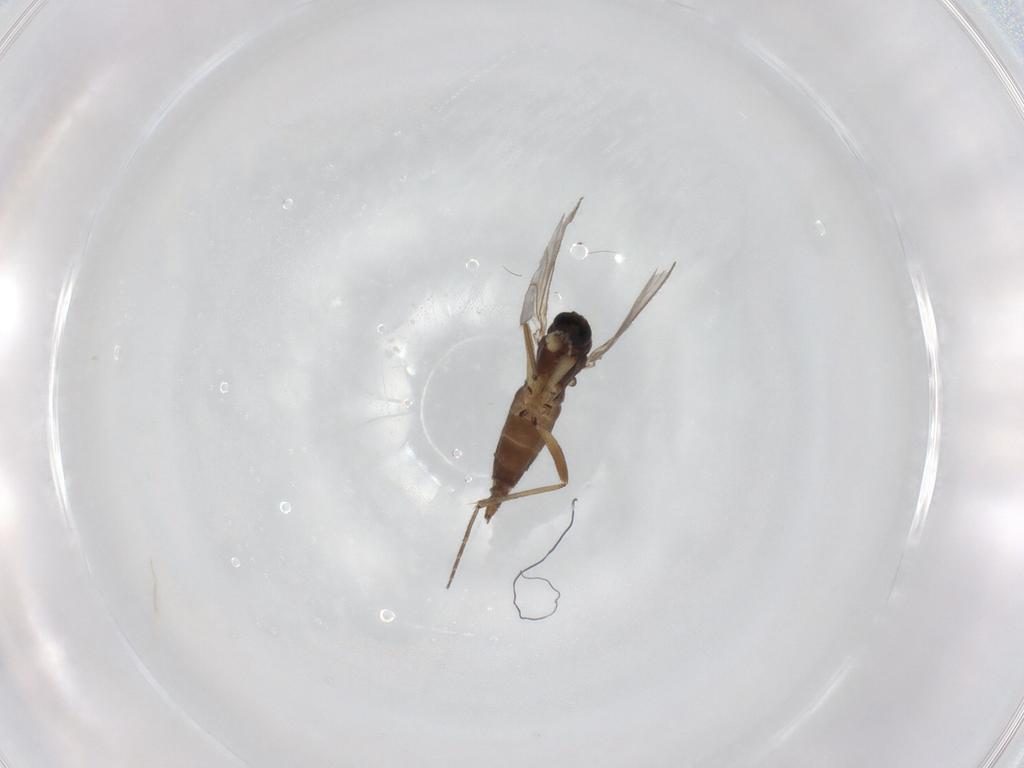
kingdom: Animalia
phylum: Arthropoda
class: Insecta
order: Diptera
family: Sciaridae
